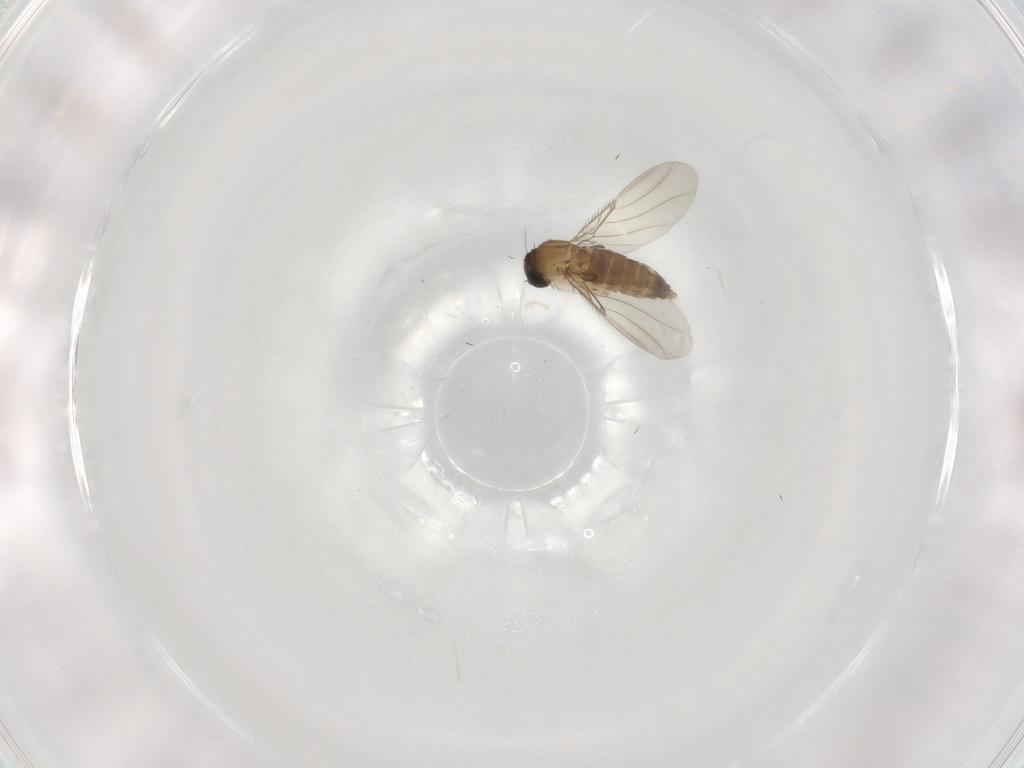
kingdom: Animalia
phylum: Arthropoda
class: Insecta
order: Diptera
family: Phoridae
